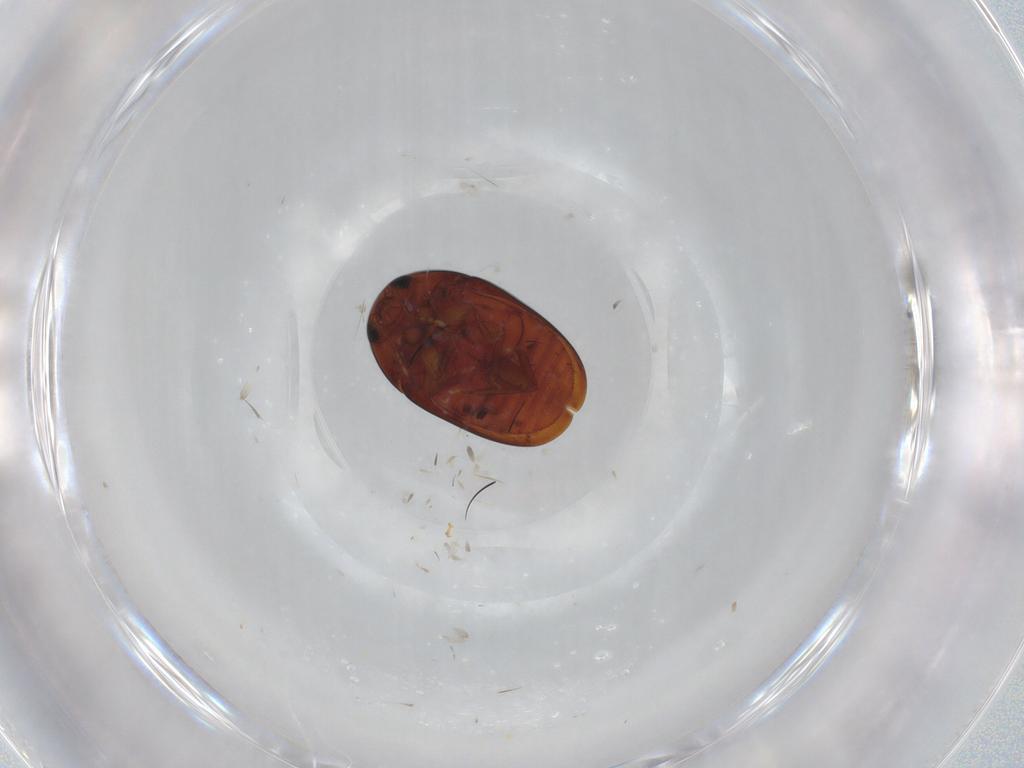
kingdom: Animalia
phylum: Arthropoda
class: Insecta
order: Coleoptera
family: Phalacridae
